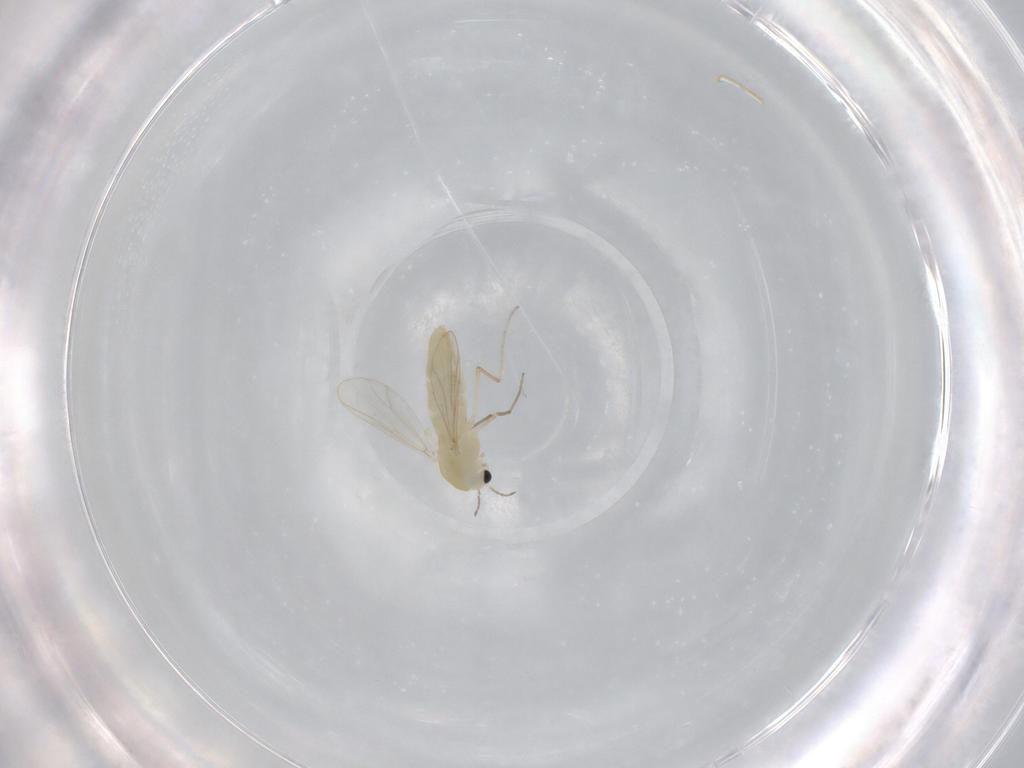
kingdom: Animalia
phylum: Arthropoda
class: Insecta
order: Diptera
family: Chironomidae
